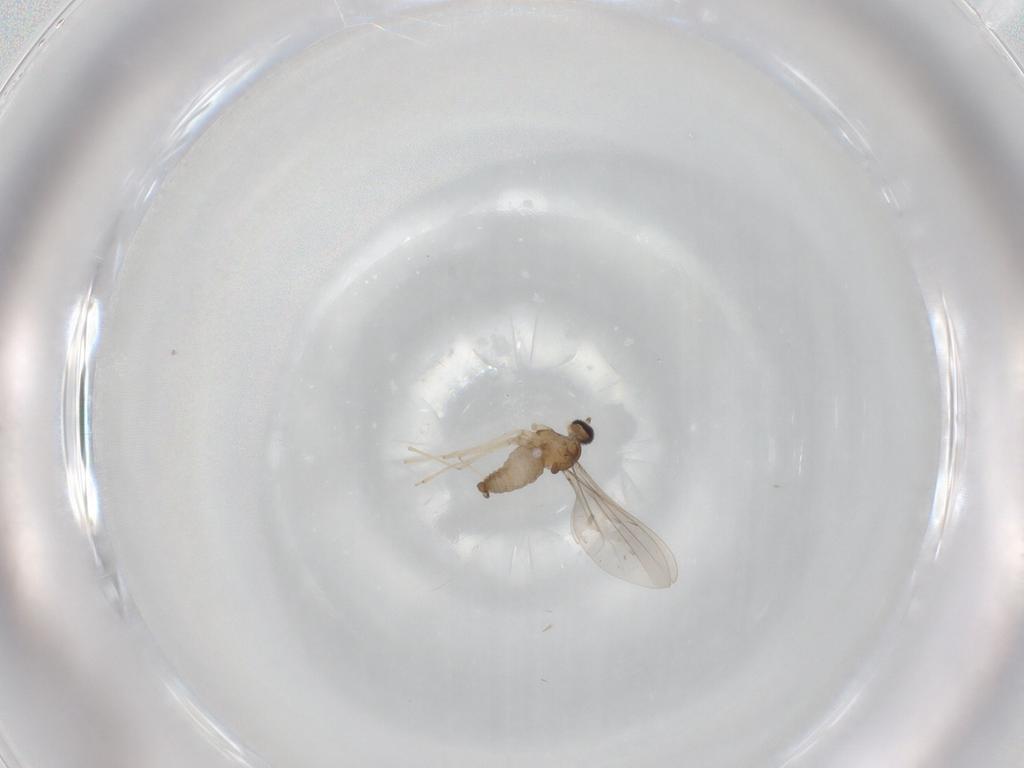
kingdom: Animalia
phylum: Arthropoda
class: Insecta
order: Diptera
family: Cecidomyiidae
